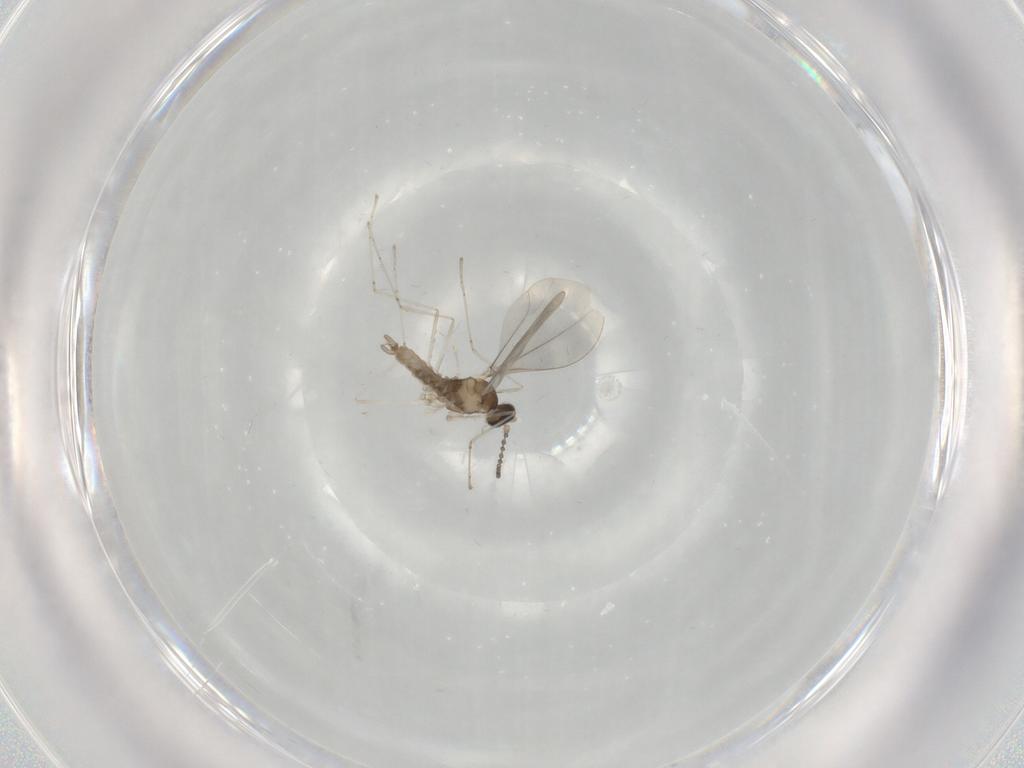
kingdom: Animalia
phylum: Arthropoda
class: Insecta
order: Diptera
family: Cecidomyiidae
